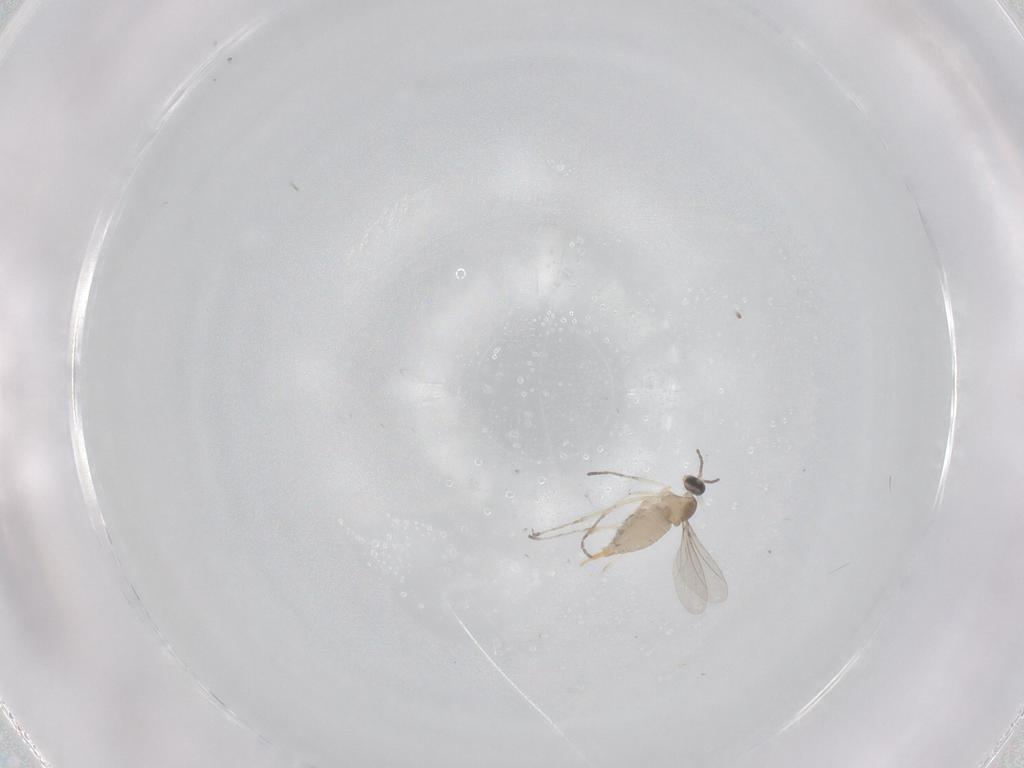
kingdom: Animalia
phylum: Arthropoda
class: Insecta
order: Diptera
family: Cecidomyiidae
